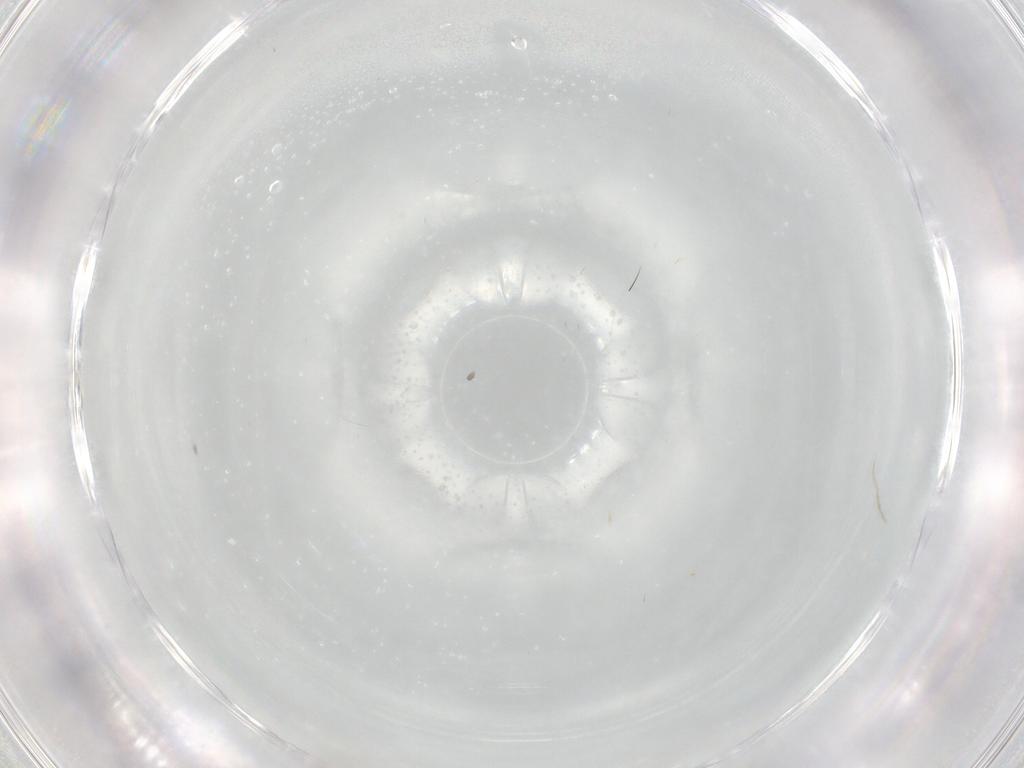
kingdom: Animalia
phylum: Arthropoda
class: Insecta
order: Diptera
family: Cecidomyiidae
